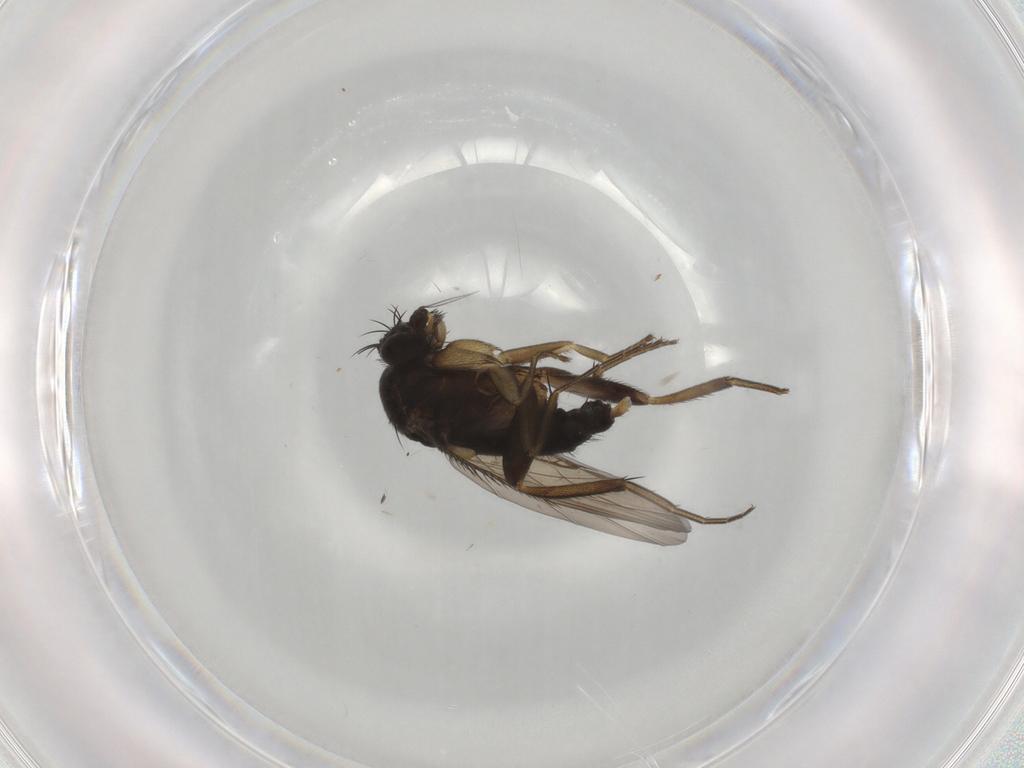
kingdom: Animalia
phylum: Arthropoda
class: Insecta
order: Diptera
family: Phoridae
